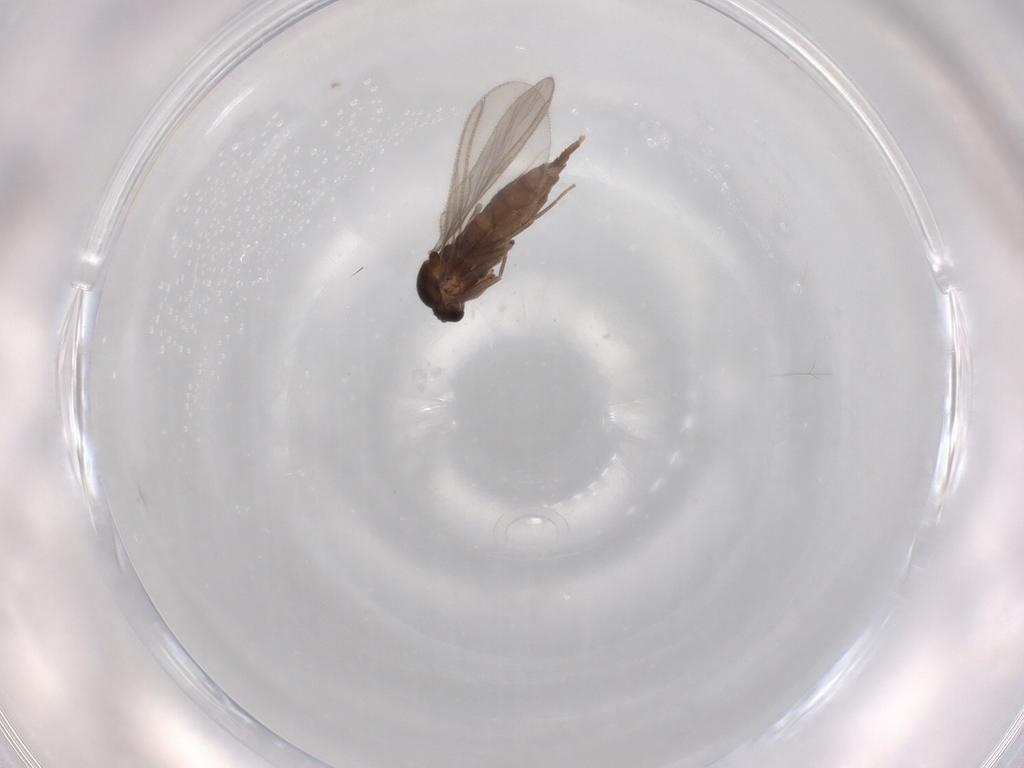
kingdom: Animalia
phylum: Arthropoda
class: Insecta
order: Diptera
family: Sciaridae
